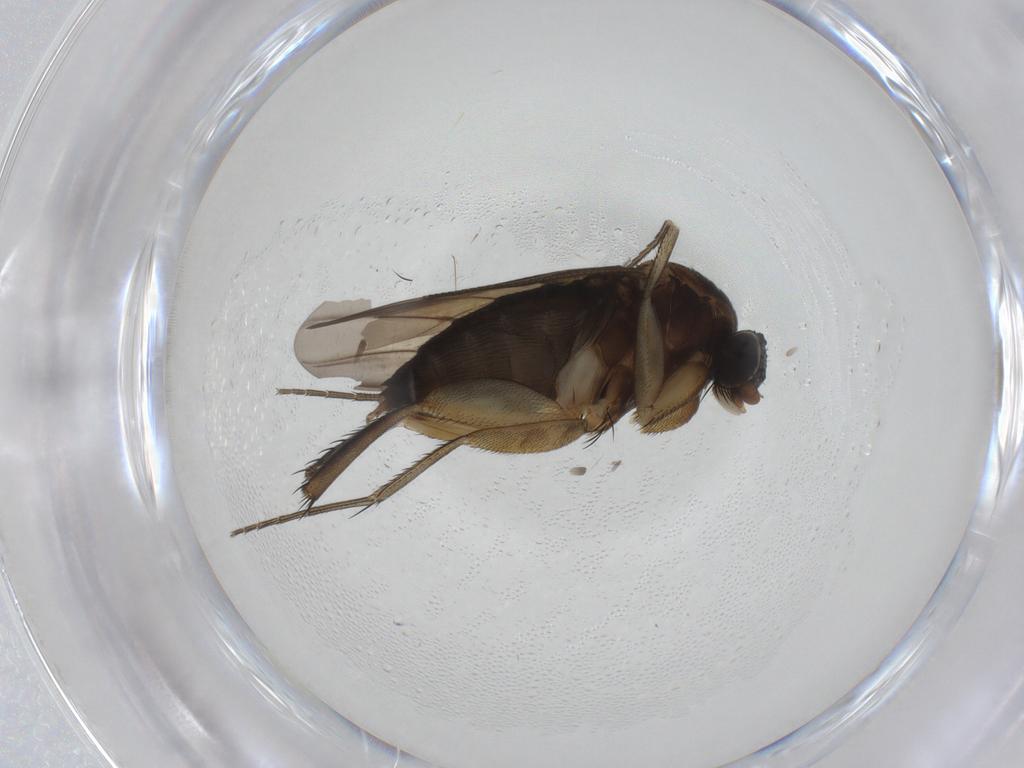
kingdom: Animalia
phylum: Arthropoda
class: Insecta
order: Diptera
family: Phoridae
